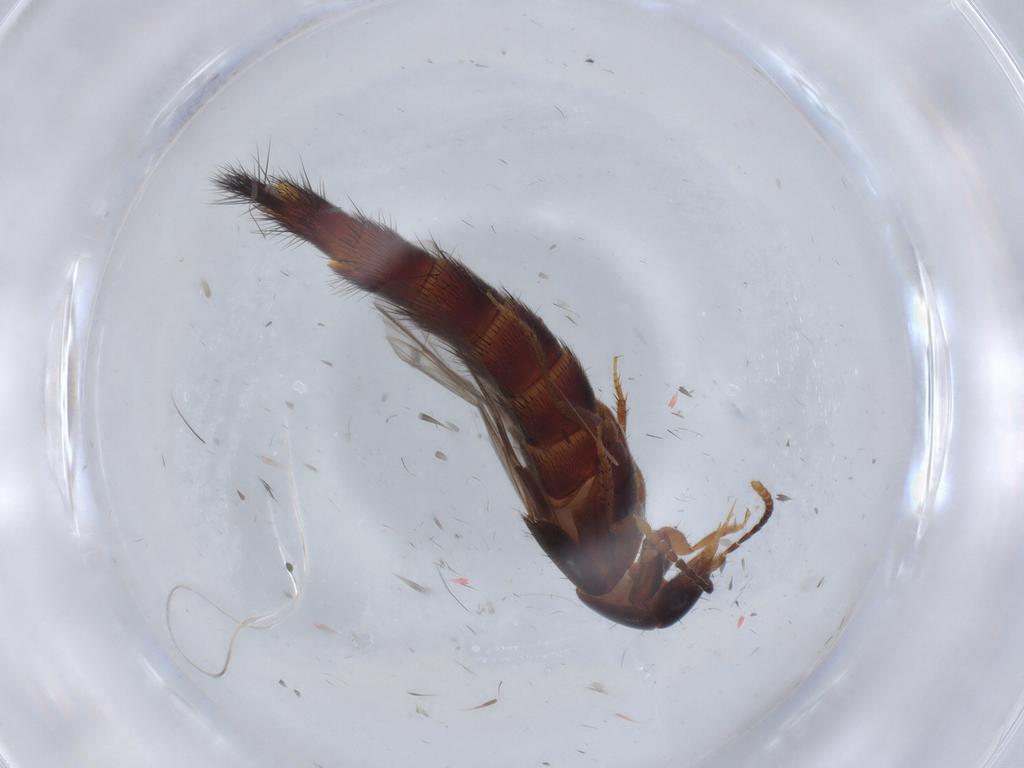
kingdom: Animalia
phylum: Arthropoda
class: Insecta
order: Coleoptera
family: Staphylinidae
